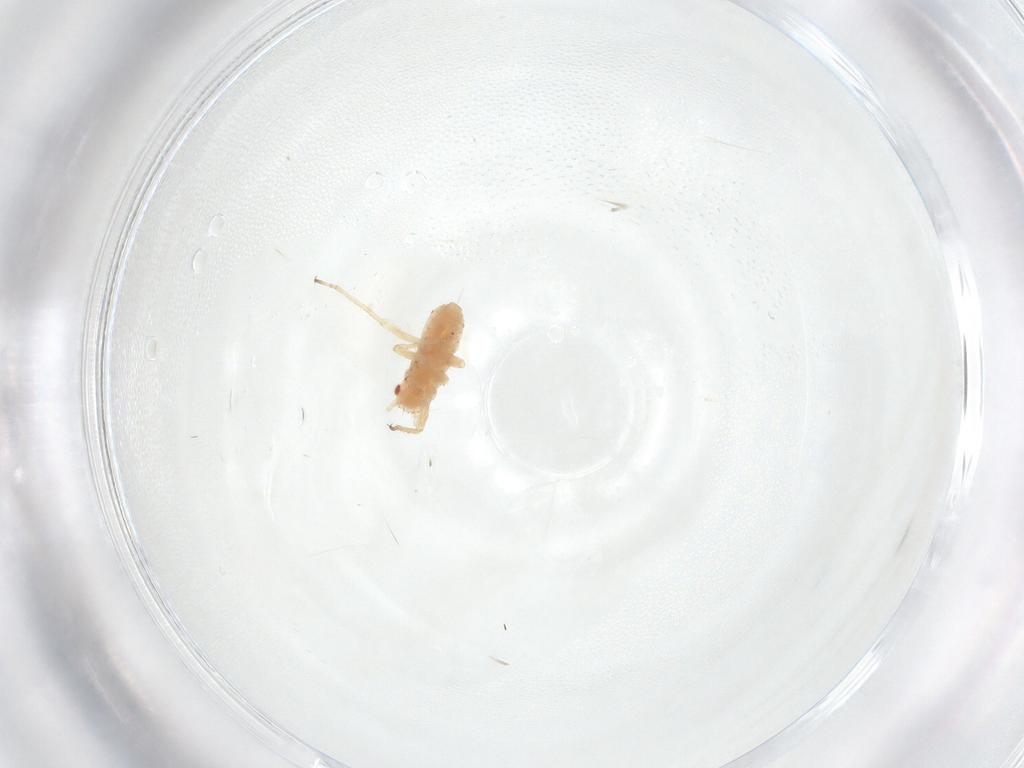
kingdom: Animalia
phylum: Arthropoda
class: Insecta
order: Hemiptera
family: Aphididae
